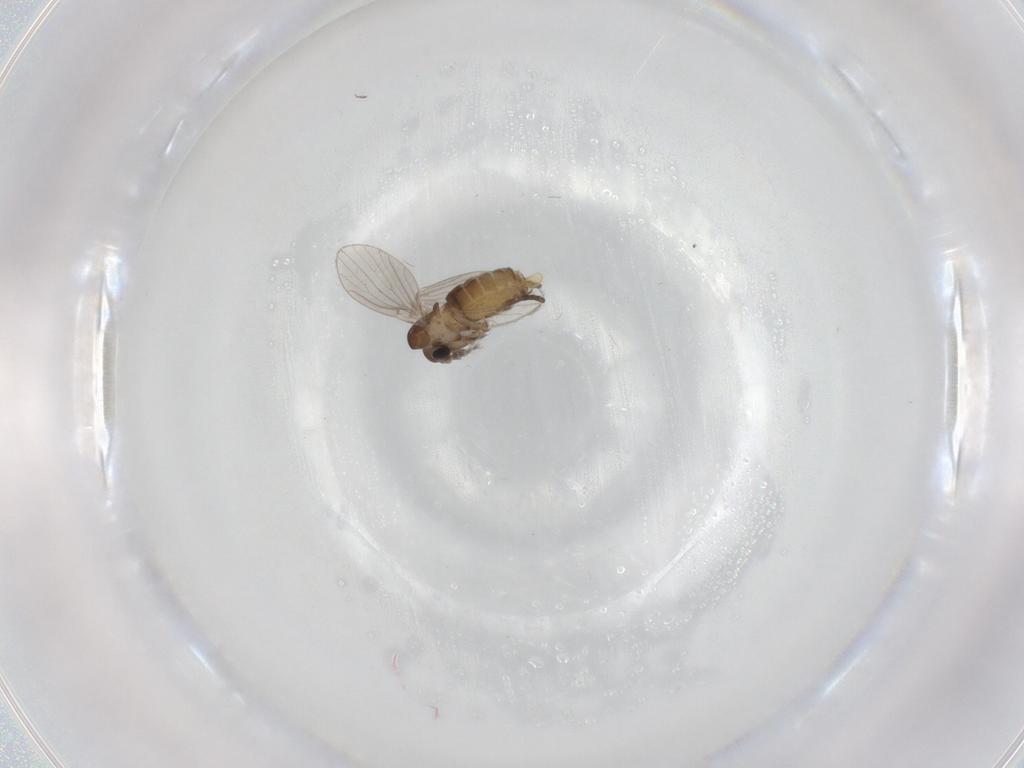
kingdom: Animalia
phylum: Arthropoda
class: Insecta
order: Diptera
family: Psychodidae
